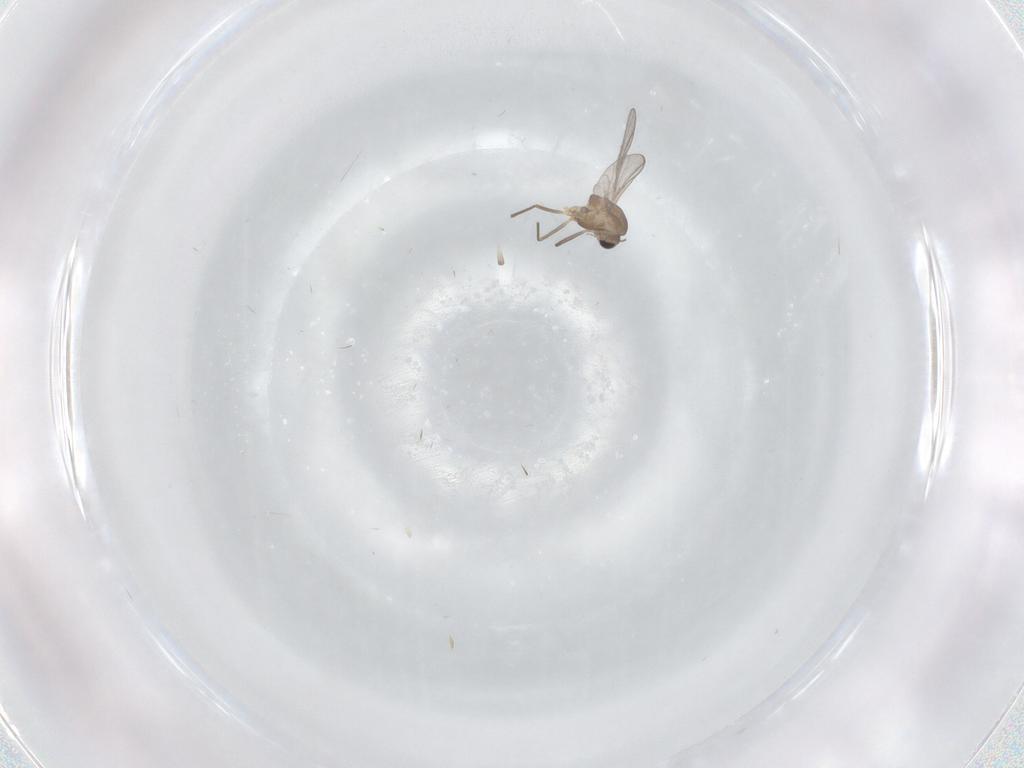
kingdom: Animalia
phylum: Arthropoda
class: Insecta
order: Diptera
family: Chironomidae
